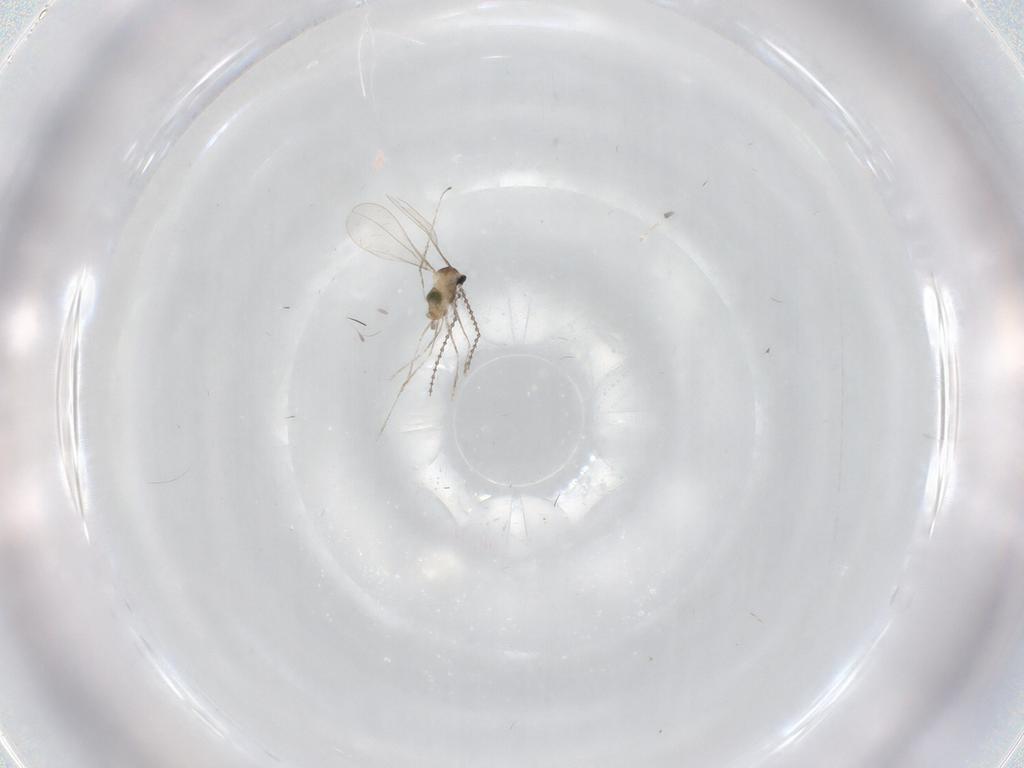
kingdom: Animalia
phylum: Arthropoda
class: Insecta
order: Diptera
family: Cecidomyiidae
